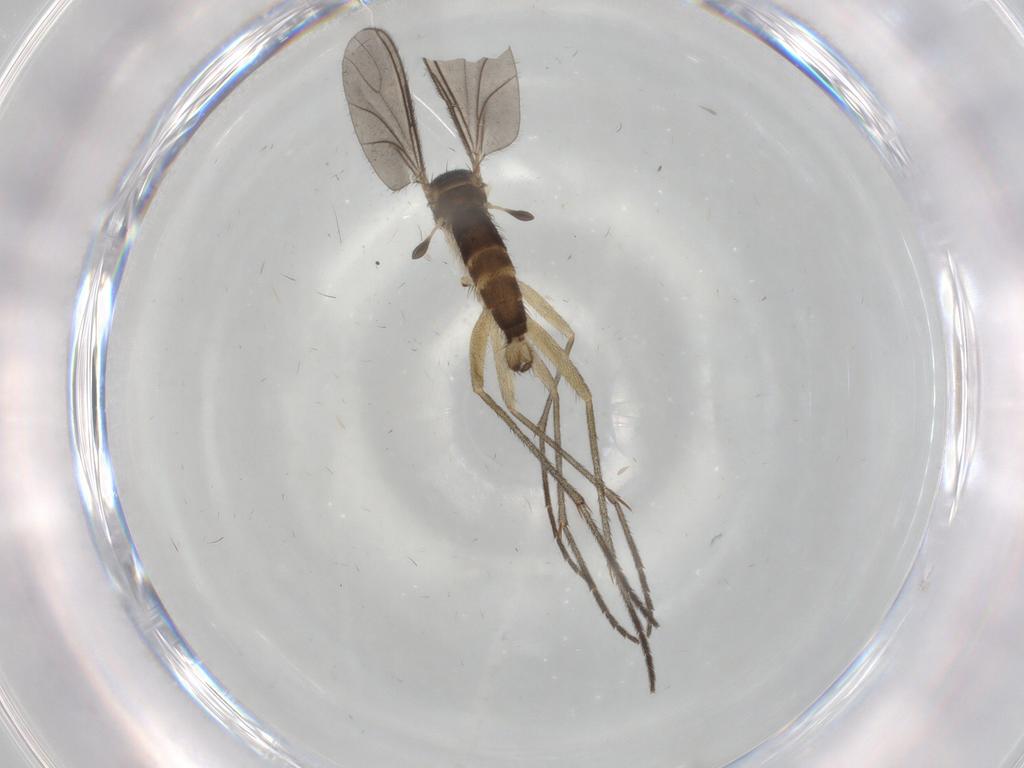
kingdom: Animalia
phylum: Arthropoda
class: Insecta
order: Diptera
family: Sciaridae
